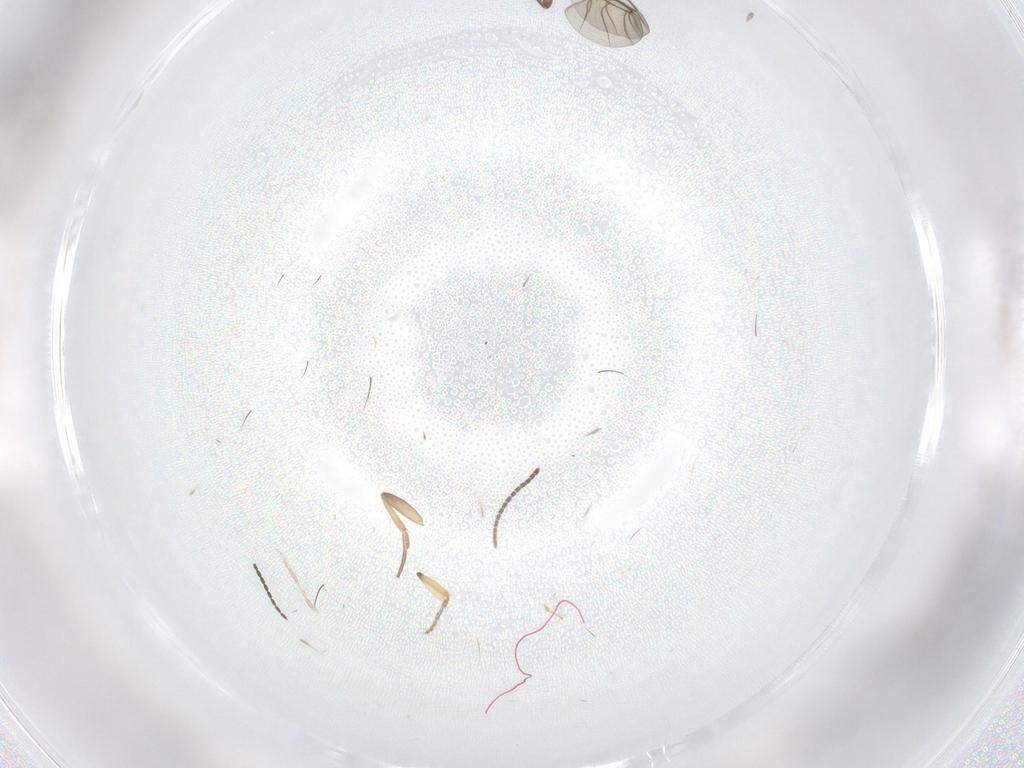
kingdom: Animalia
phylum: Arthropoda
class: Insecta
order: Diptera
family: Phoridae
